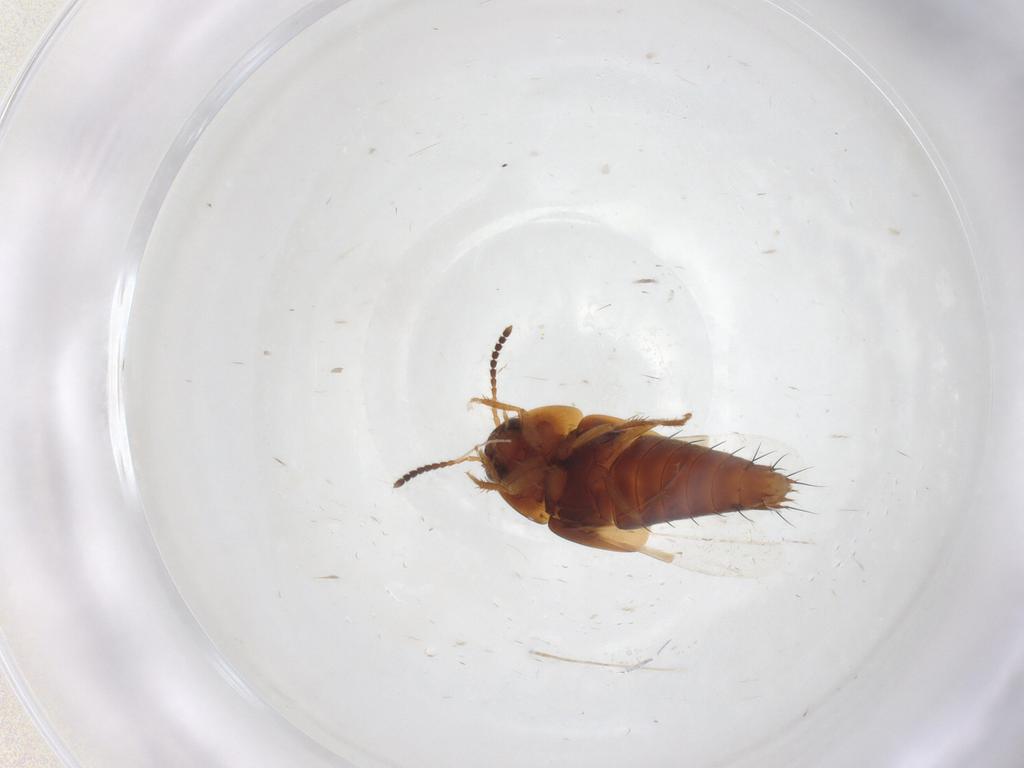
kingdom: Animalia
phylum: Arthropoda
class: Insecta
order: Coleoptera
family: Staphylinidae
